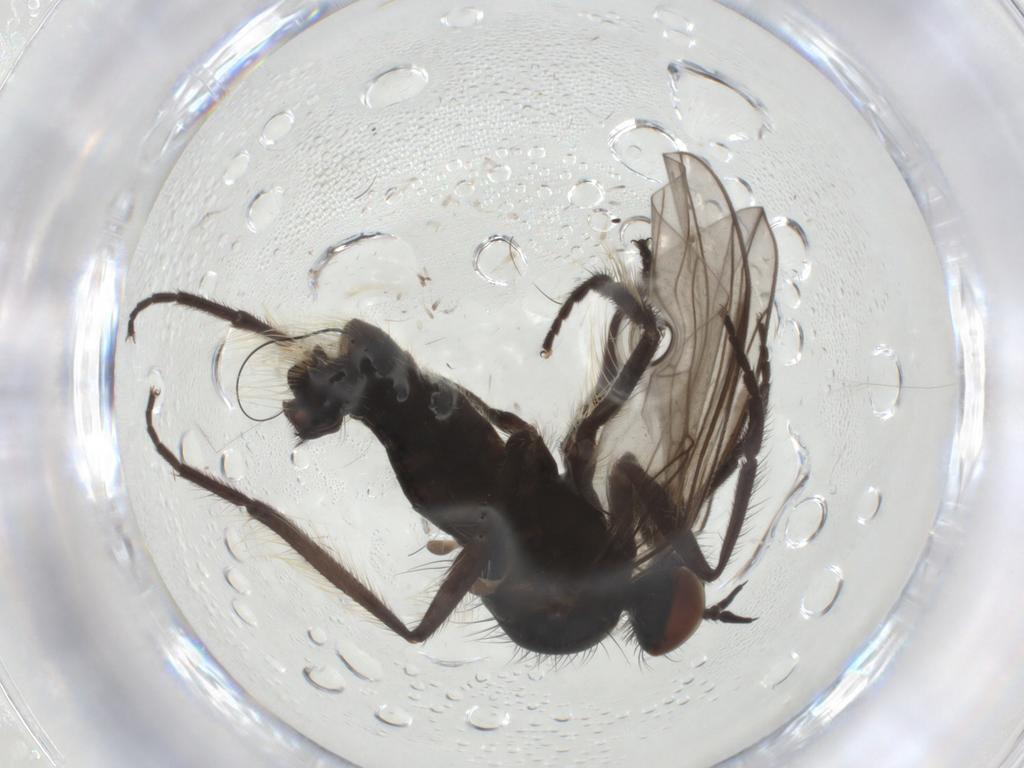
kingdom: Animalia
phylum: Arthropoda
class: Insecta
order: Diptera
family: Empididae
